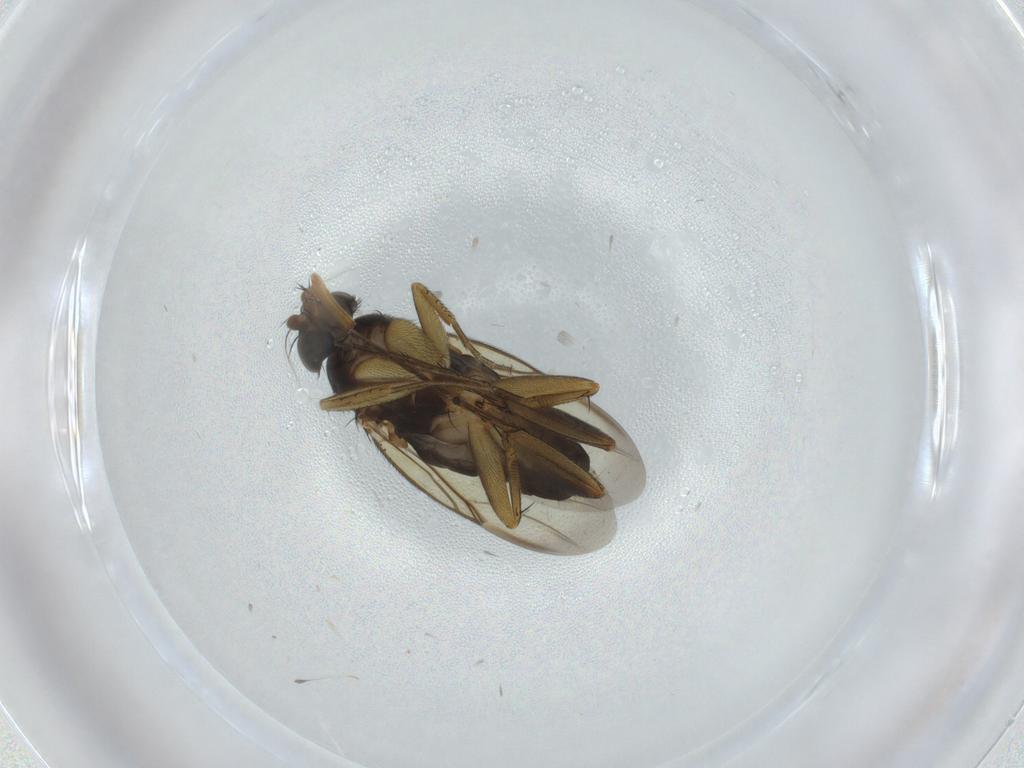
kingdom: Animalia
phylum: Arthropoda
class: Insecta
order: Diptera
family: Phoridae
